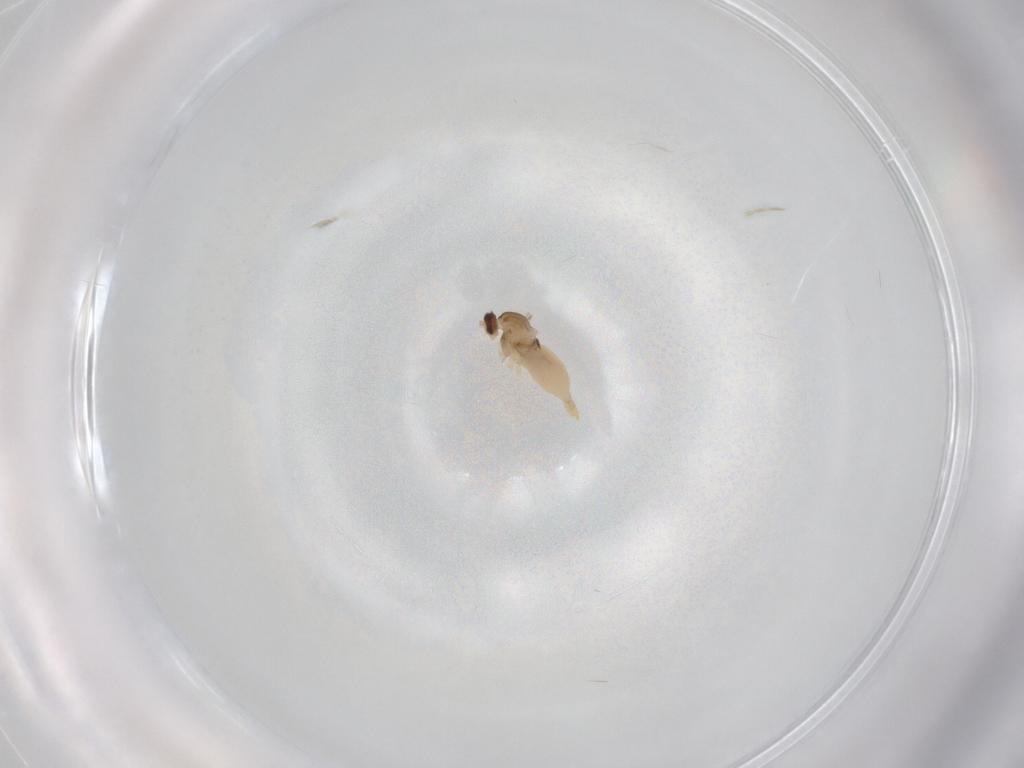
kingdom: Animalia
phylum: Arthropoda
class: Insecta
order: Diptera
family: Cecidomyiidae
